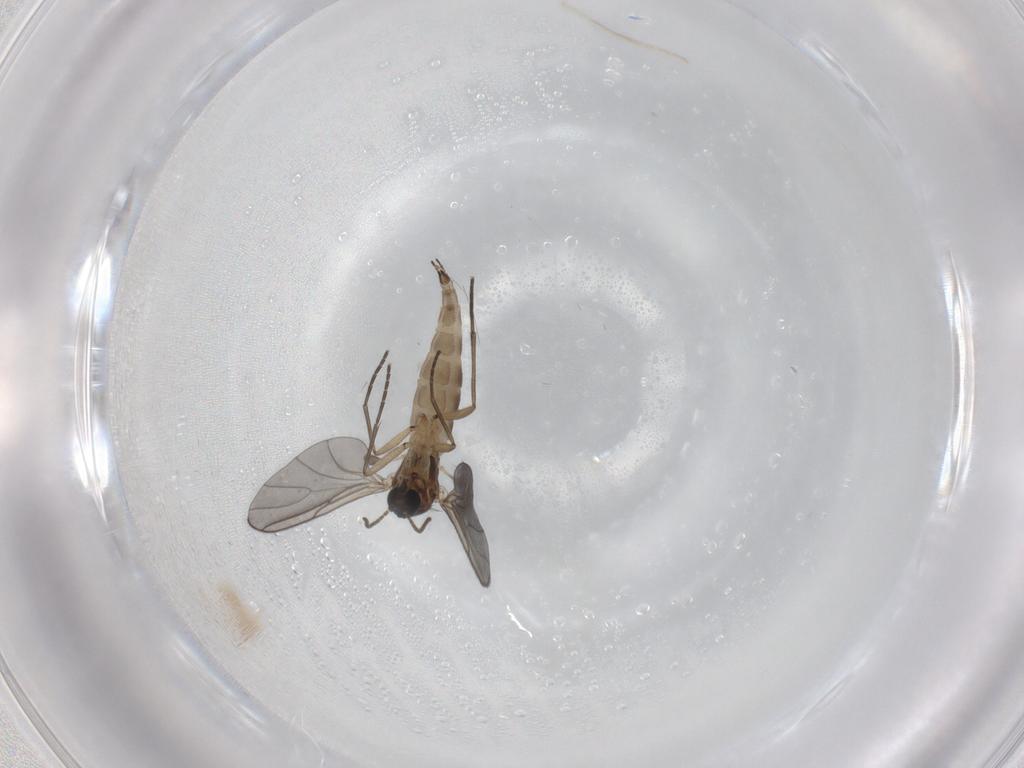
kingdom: Animalia
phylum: Arthropoda
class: Insecta
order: Diptera
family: Sciaridae
